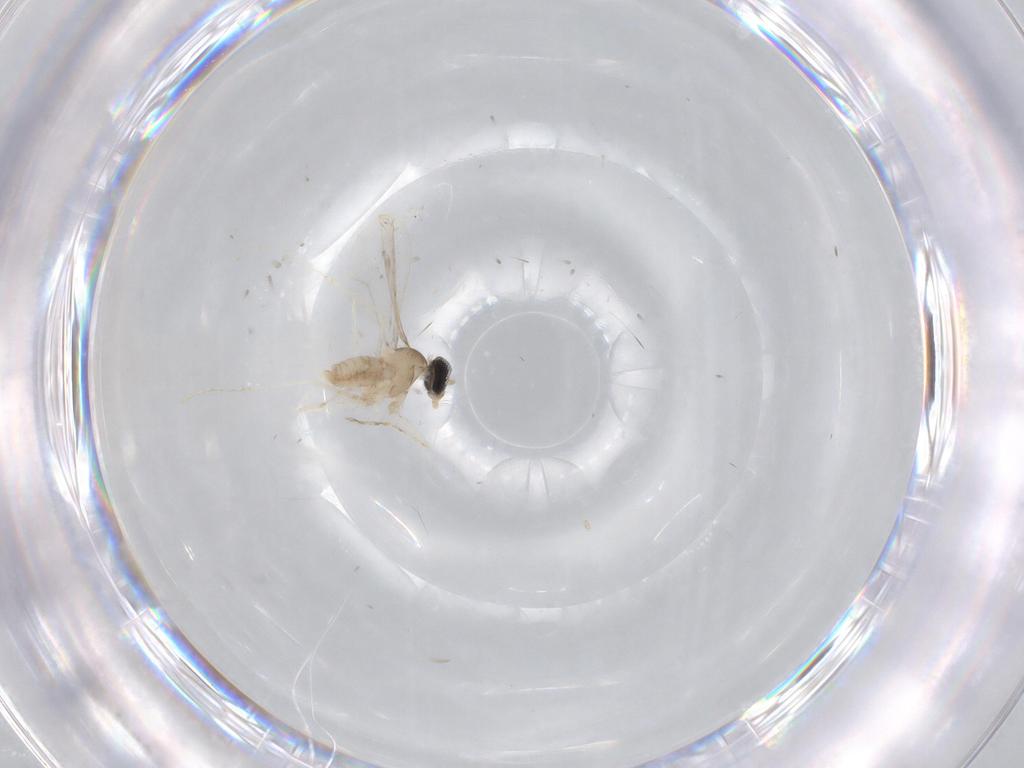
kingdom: Animalia
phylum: Arthropoda
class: Insecta
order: Diptera
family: Cecidomyiidae
